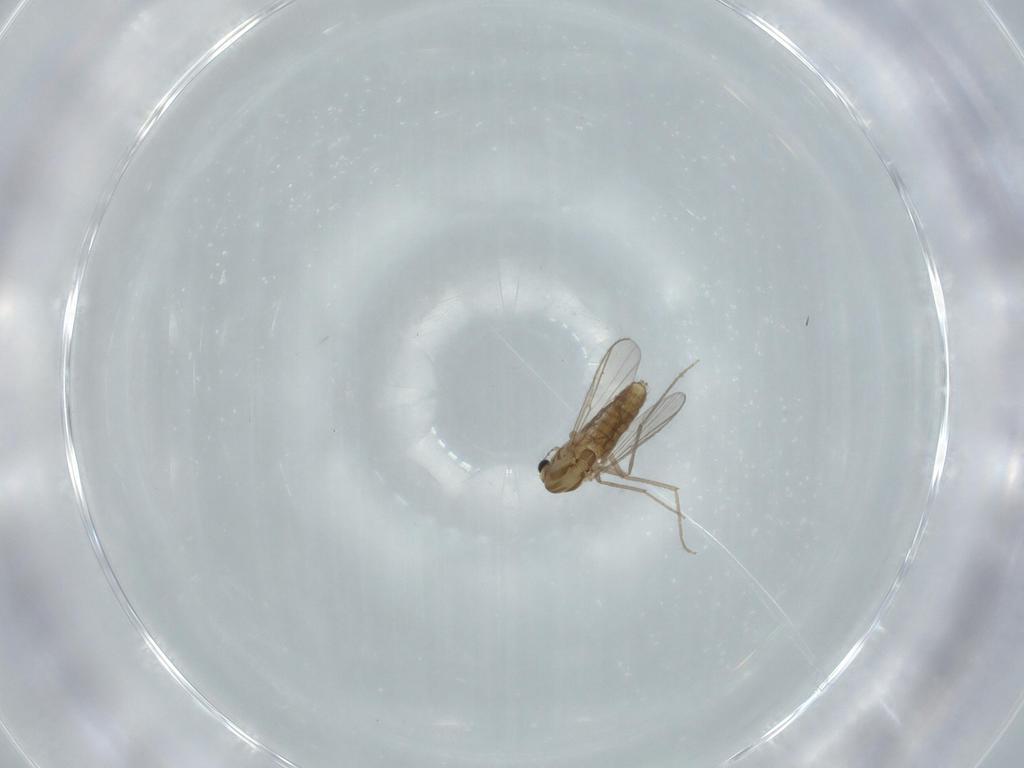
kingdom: Animalia
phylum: Arthropoda
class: Insecta
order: Diptera
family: Chironomidae
